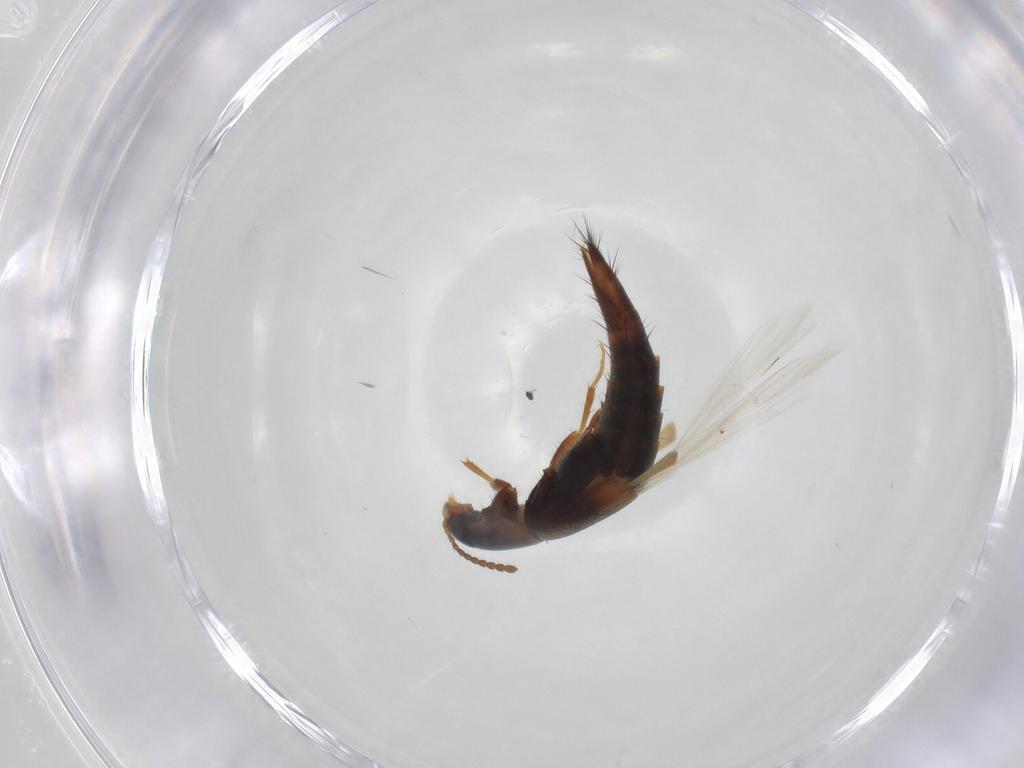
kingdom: Animalia
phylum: Arthropoda
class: Insecta
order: Coleoptera
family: Staphylinidae
